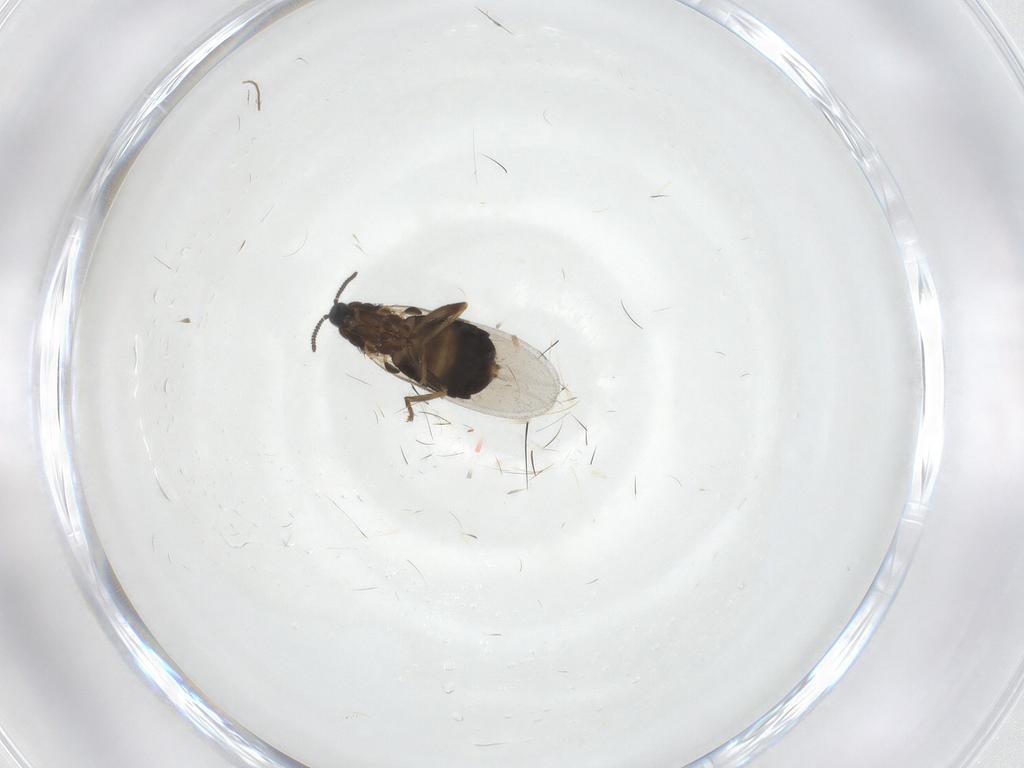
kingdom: Animalia
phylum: Arthropoda
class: Insecta
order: Diptera
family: Scatopsidae
